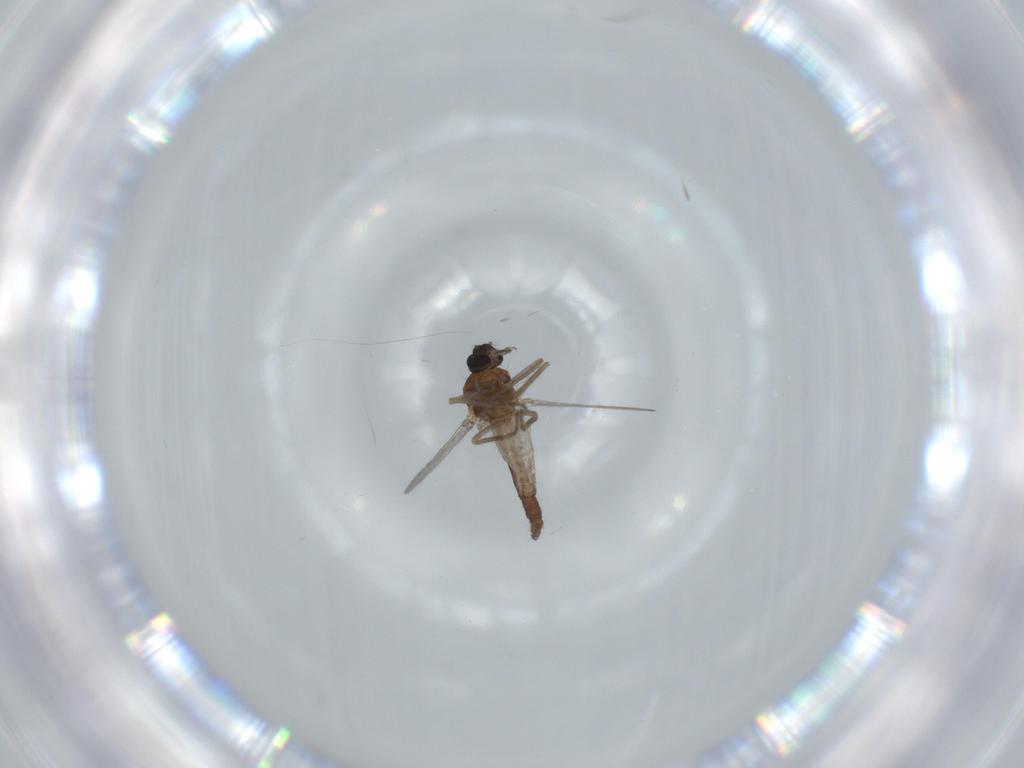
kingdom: Animalia
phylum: Arthropoda
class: Insecta
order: Diptera
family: Ceratopogonidae
